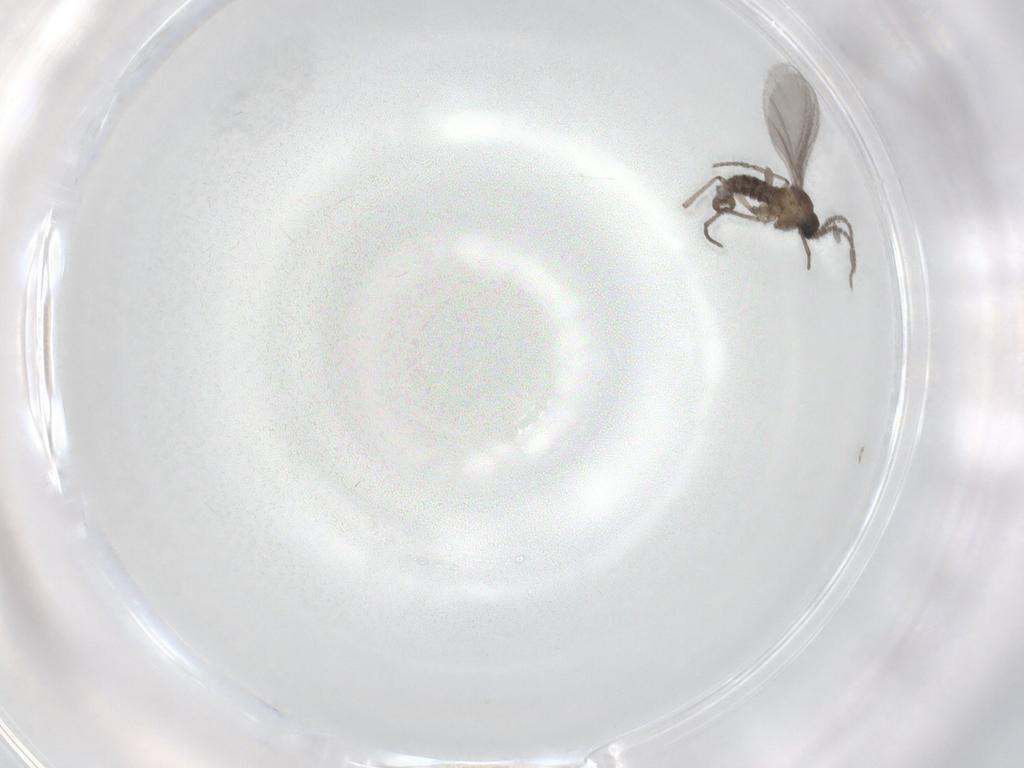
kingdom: Animalia
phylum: Arthropoda
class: Insecta
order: Diptera
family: Sciaridae
